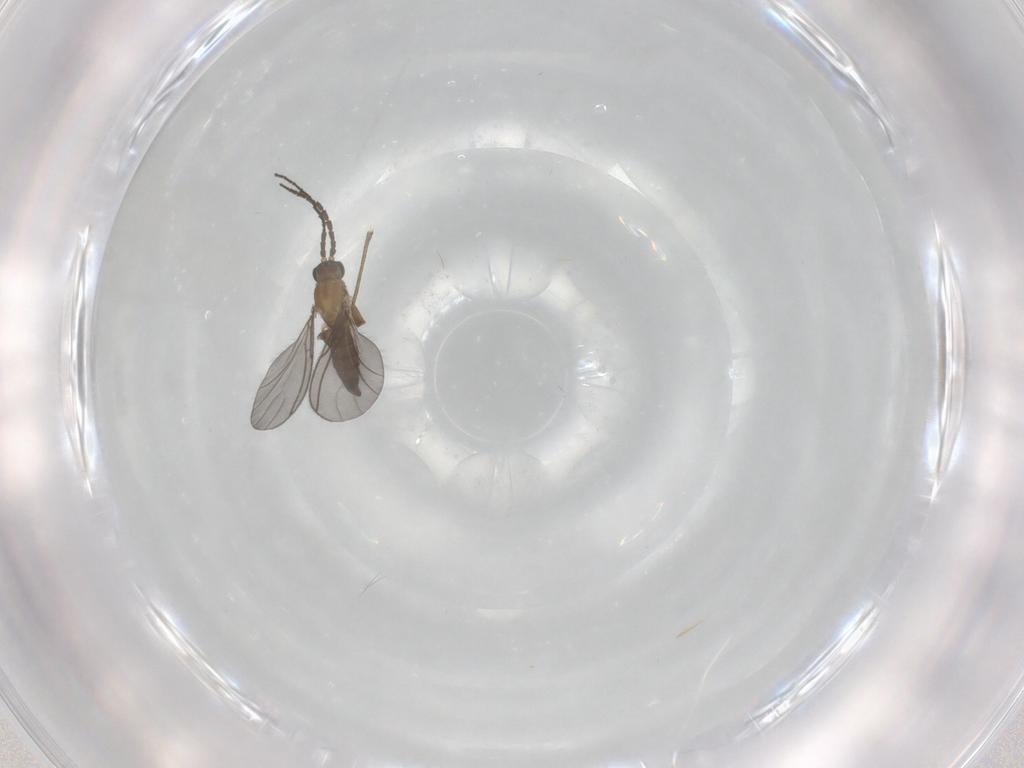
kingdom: Animalia
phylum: Arthropoda
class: Insecta
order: Diptera
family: Sciaridae
